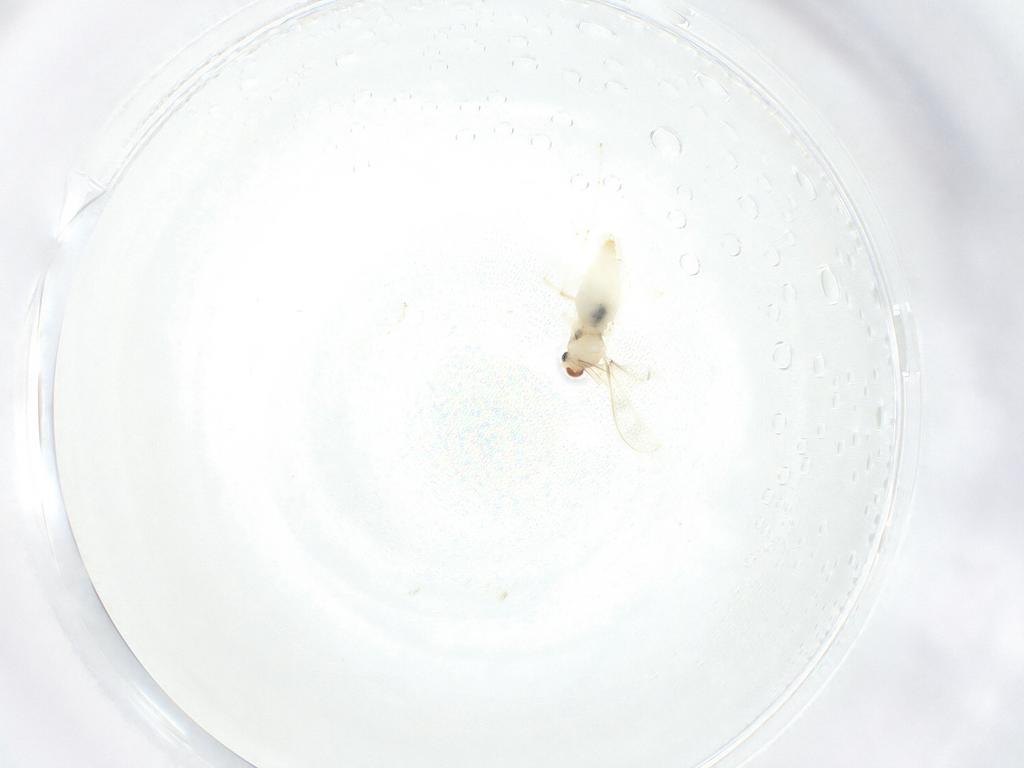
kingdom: Animalia
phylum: Arthropoda
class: Insecta
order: Diptera
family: Cecidomyiidae
